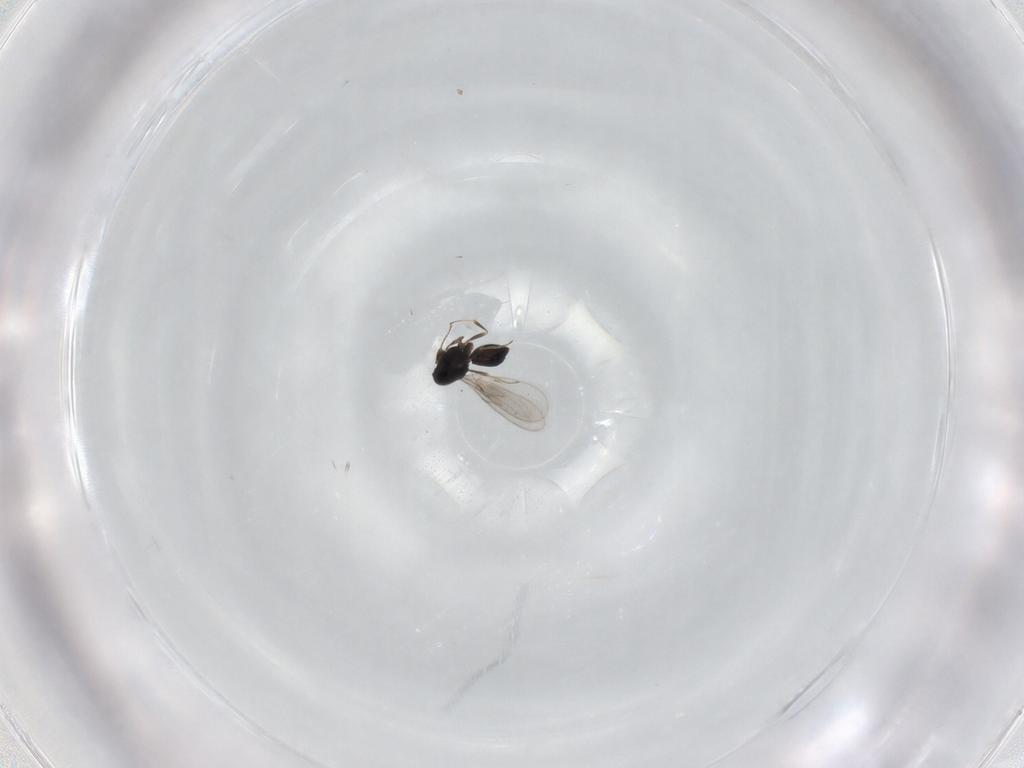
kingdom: Animalia
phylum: Arthropoda
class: Insecta
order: Hymenoptera
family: Scelionidae
